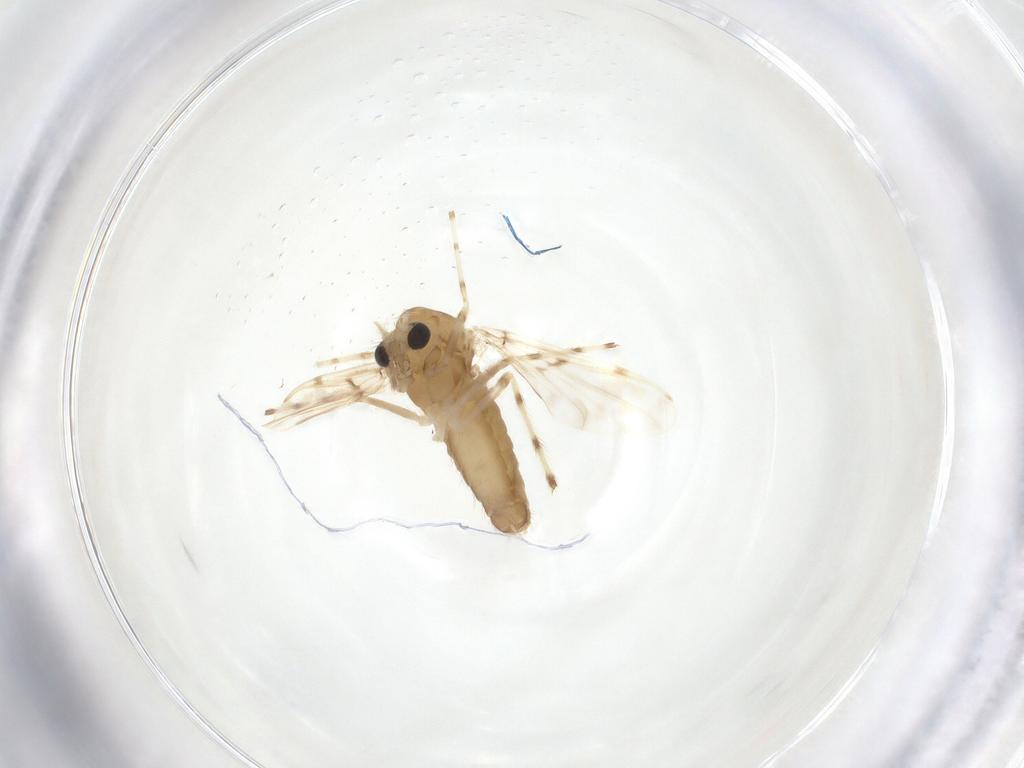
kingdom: Animalia
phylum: Arthropoda
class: Insecta
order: Diptera
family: Chironomidae
